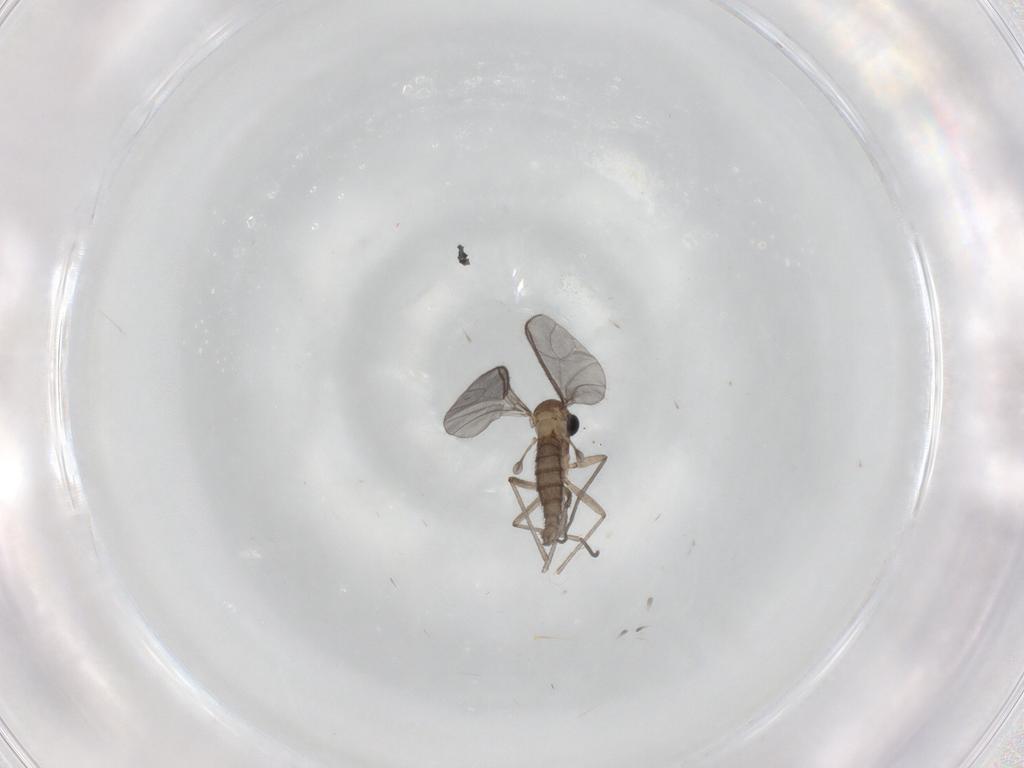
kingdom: Animalia
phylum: Arthropoda
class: Insecta
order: Diptera
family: Sciaridae
